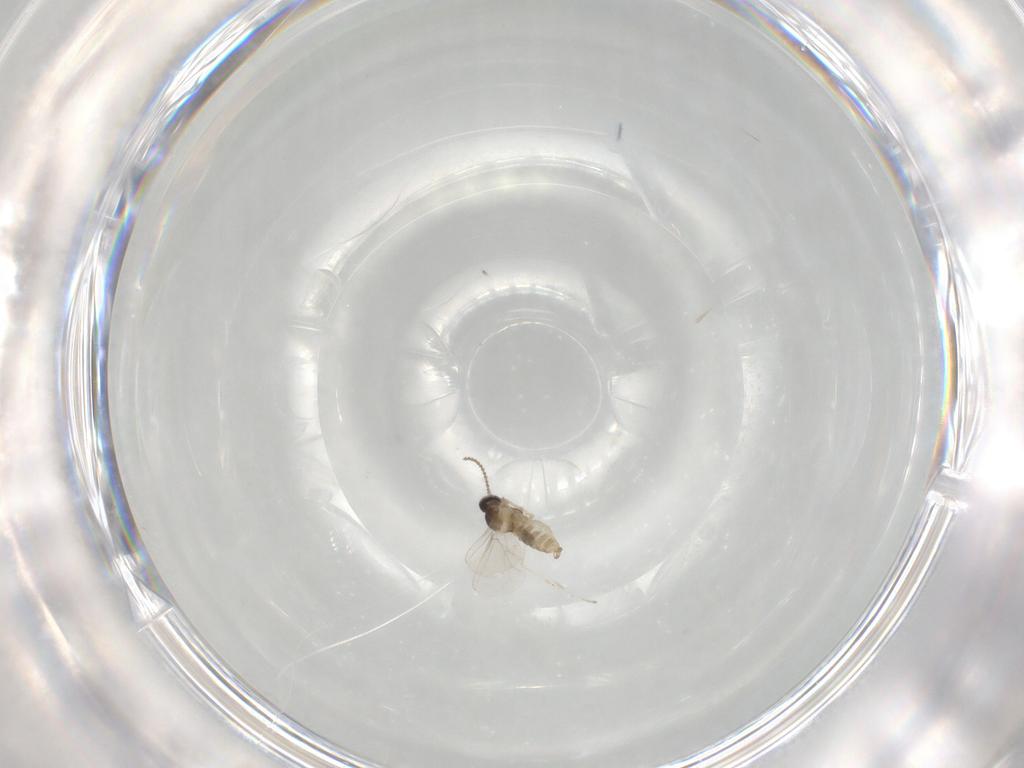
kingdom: Animalia
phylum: Arthropoda
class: Insecta
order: Diptera
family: Cecidomyiidae
